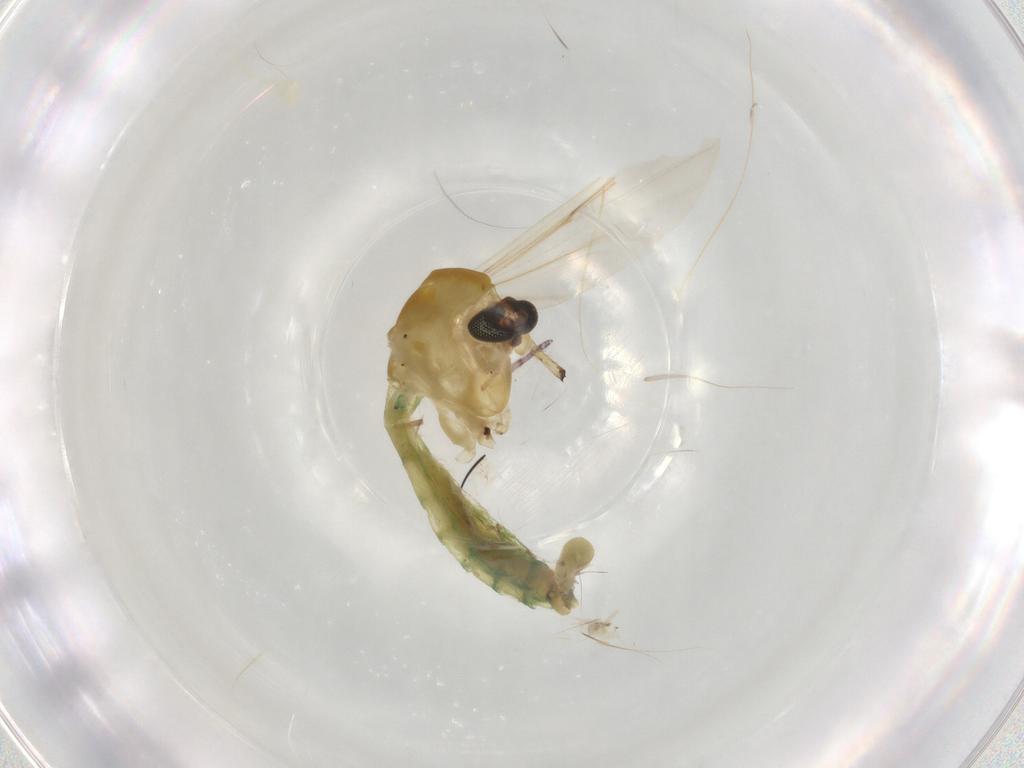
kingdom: Animalia
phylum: Arthropoda
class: Insecta
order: Diptera
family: Chironomidae
